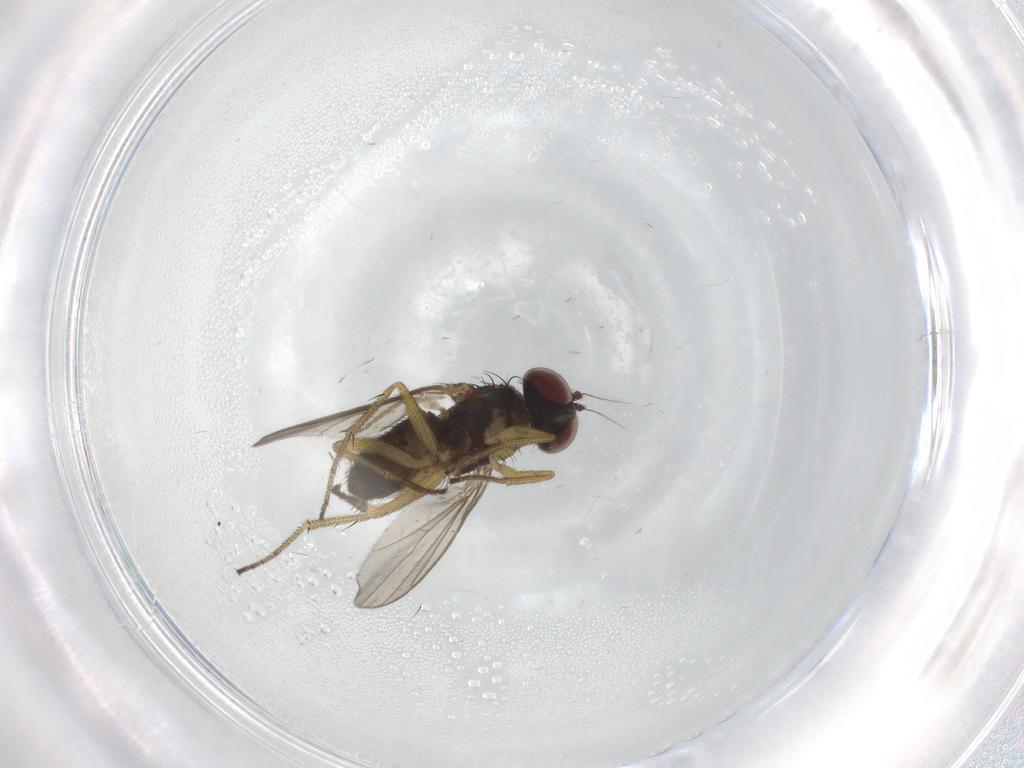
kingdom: Animalia
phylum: Arthropoda
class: Insecta
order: Diptera
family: Chironomidae
